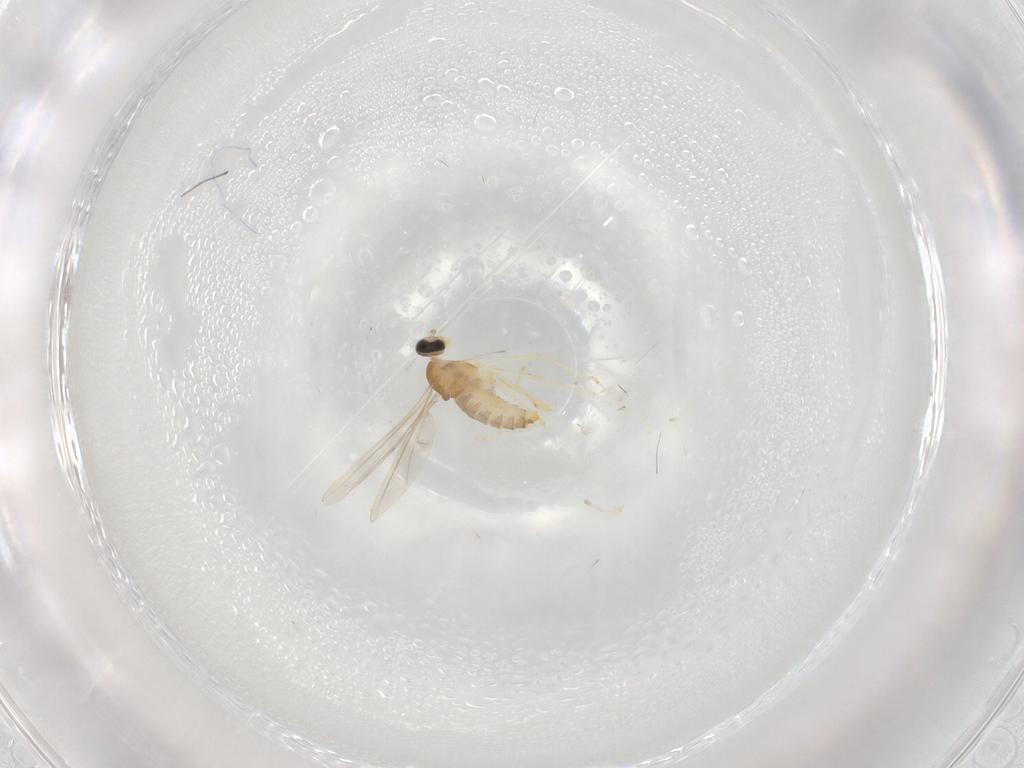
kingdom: Animalia
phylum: Arthropoda
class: Insecta
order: Diptera
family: Cecidomyiidae
